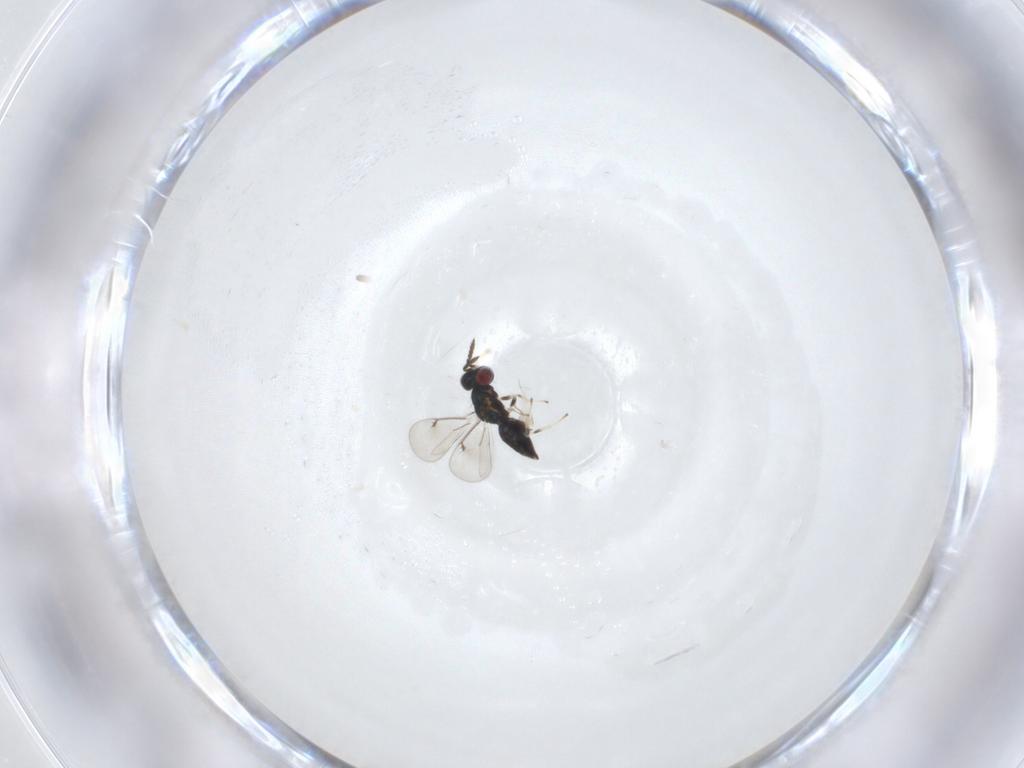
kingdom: Animalia
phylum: Arthropoda
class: Insecta
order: Hymenoptera
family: Eulophidae
